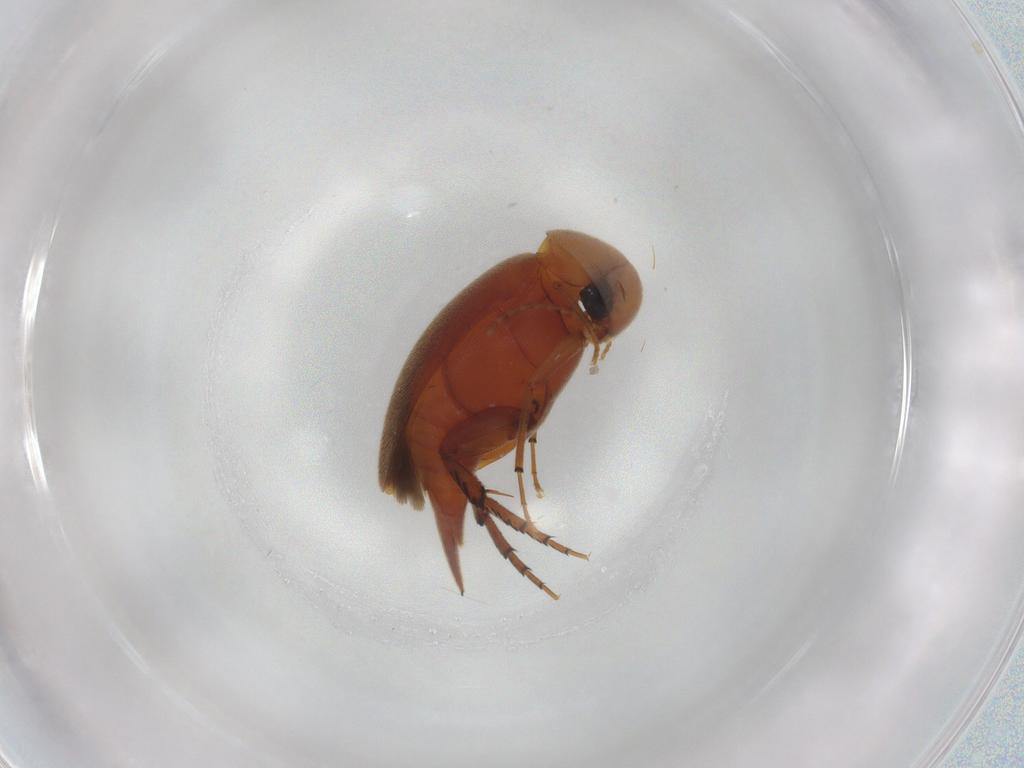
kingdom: Animalia
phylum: Arthropoda
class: Insecta
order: Coleoptera
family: Mordellidae
